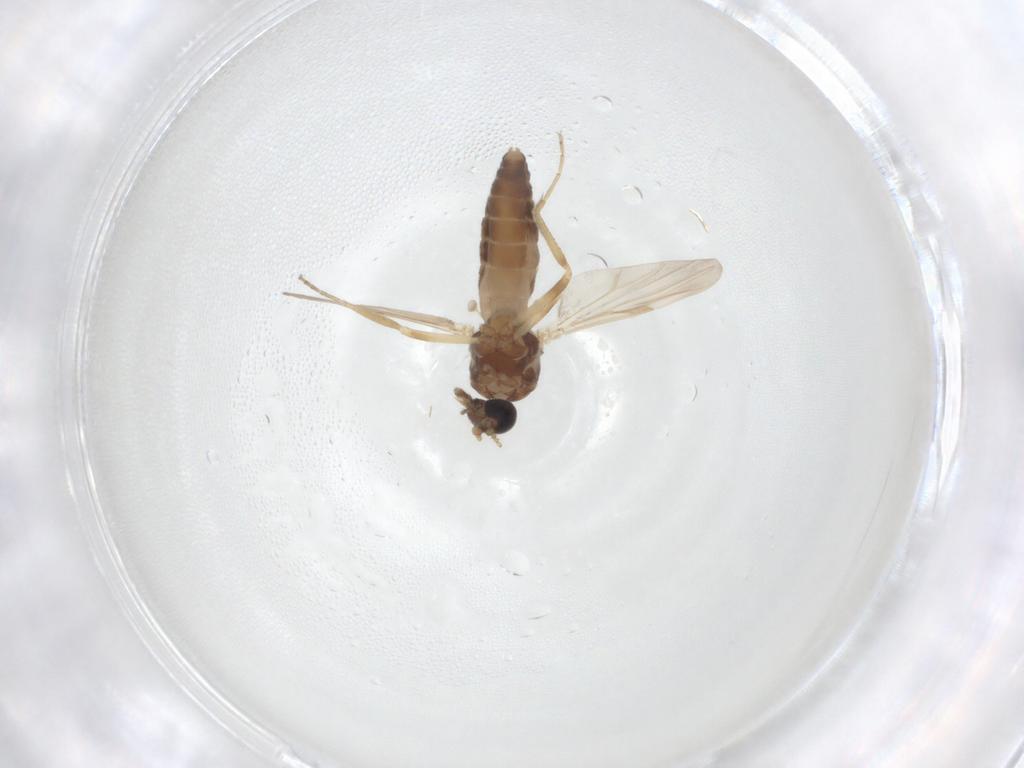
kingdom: Animalia
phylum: Arthropoda
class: Insecta
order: Diptera
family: Ceratopogonidae
